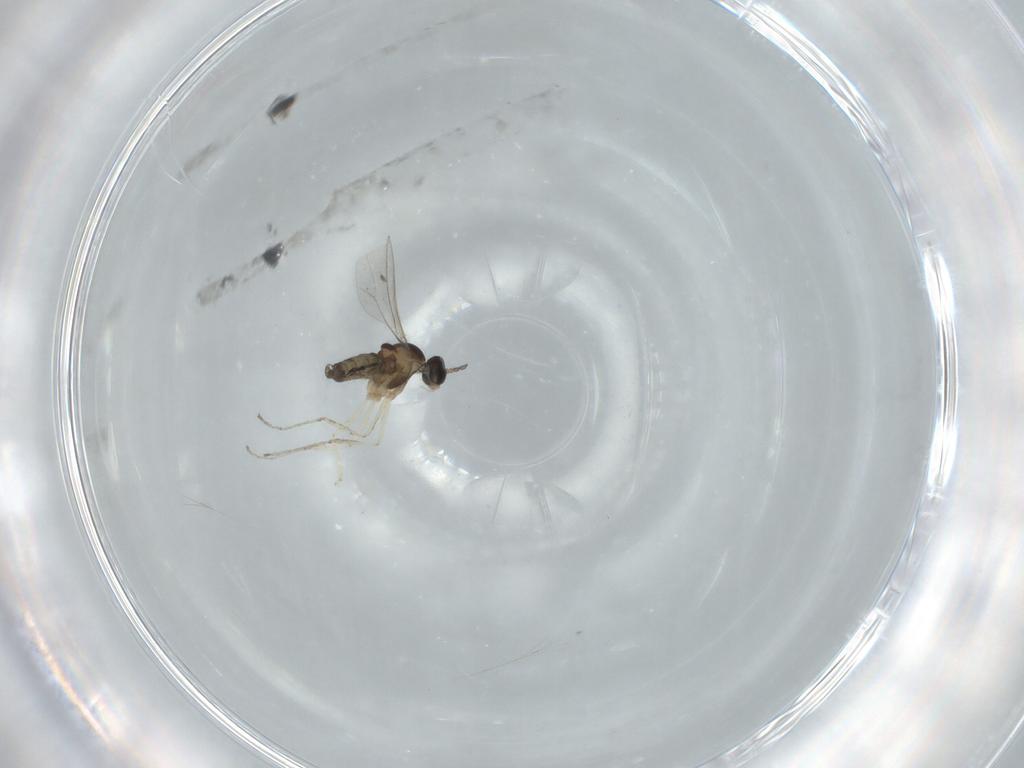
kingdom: Animalia
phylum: Arthropoda
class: Insecta
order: Diptera
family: Cecidomyiidae
